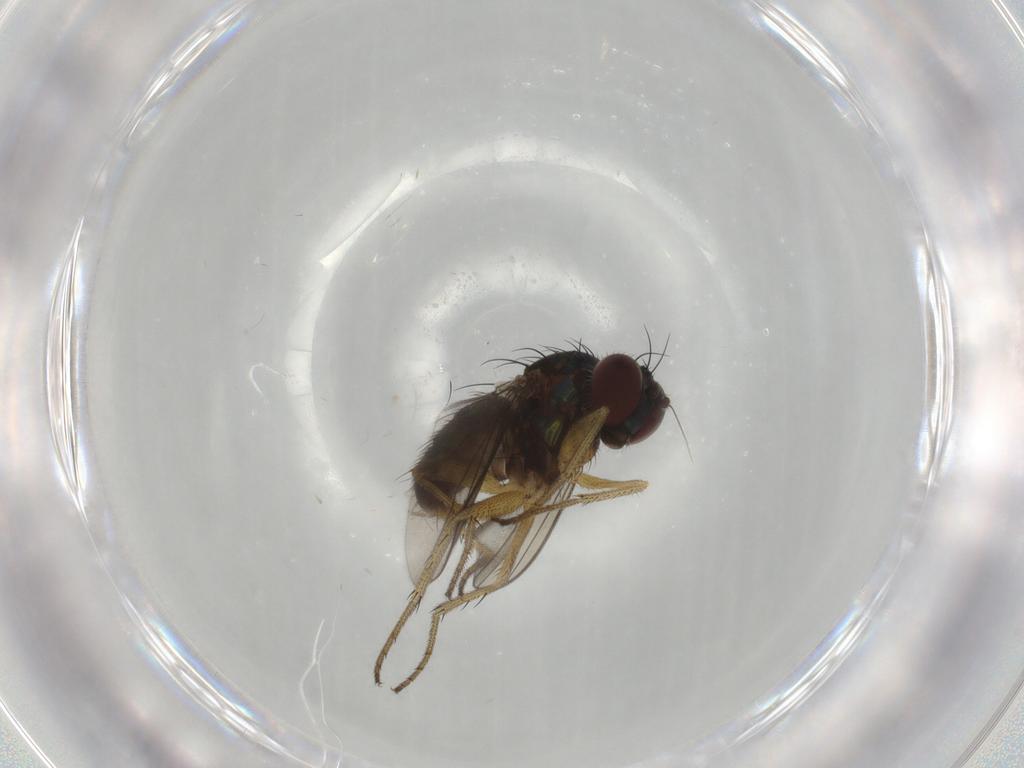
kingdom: Animalia
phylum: Arthropoda
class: Insecta
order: Diptera
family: Dolichopodidae
